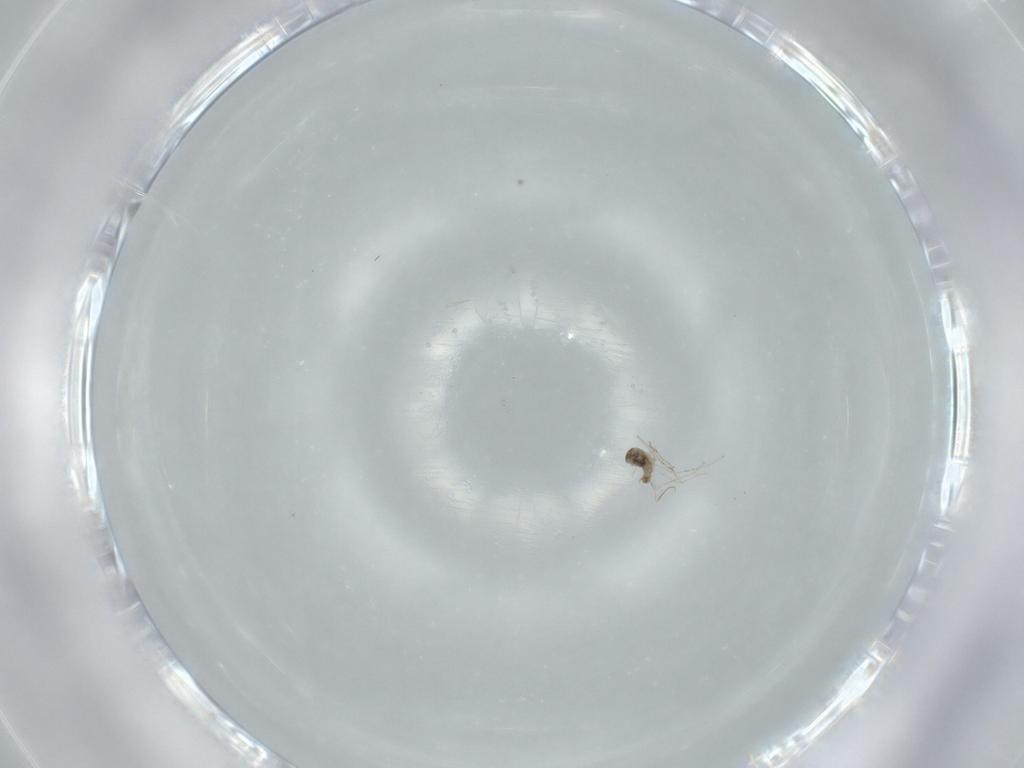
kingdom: Animalia
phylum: Arthropoda
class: Insecta
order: Diptera
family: Cecidomyiidae
